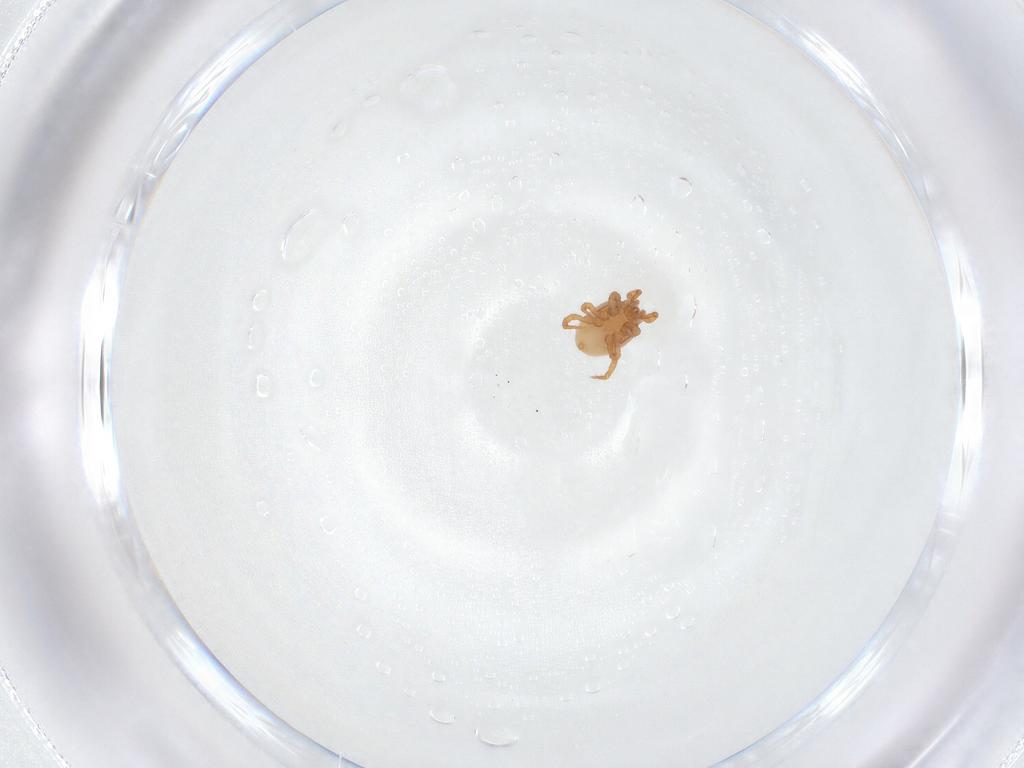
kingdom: Animalia
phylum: Arthropoda
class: Arachnida
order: Mesostigmata
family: Parasitidae
